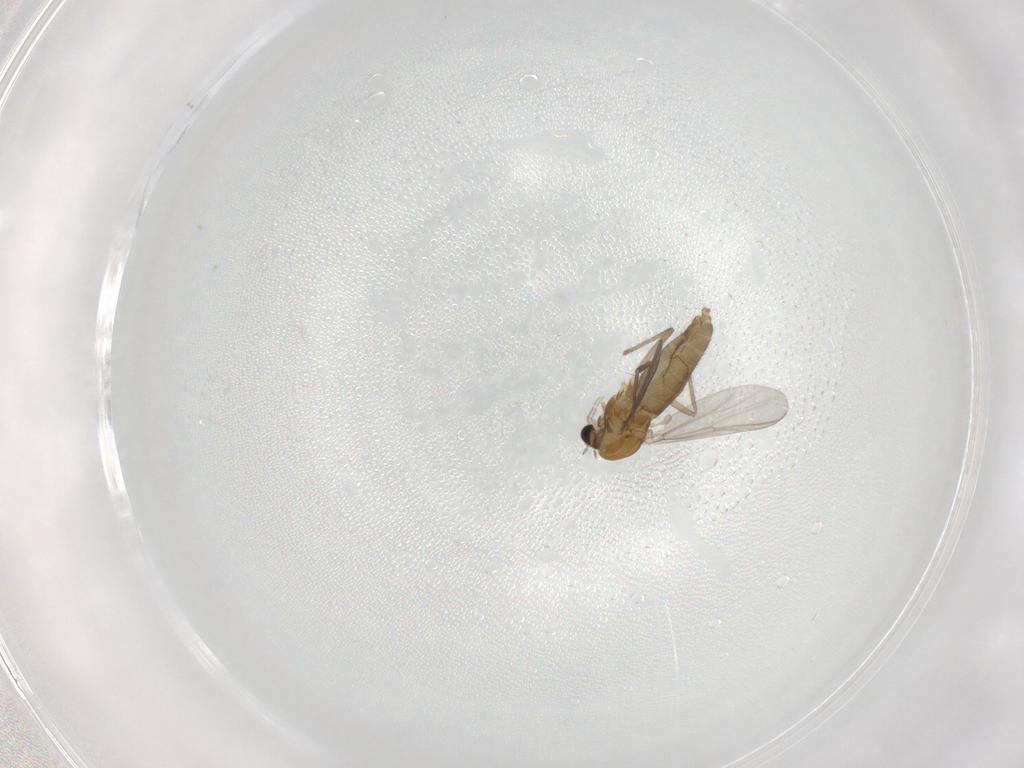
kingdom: Animalia
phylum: Arthropoda
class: Insecta
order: Diptera
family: Chironomidae
